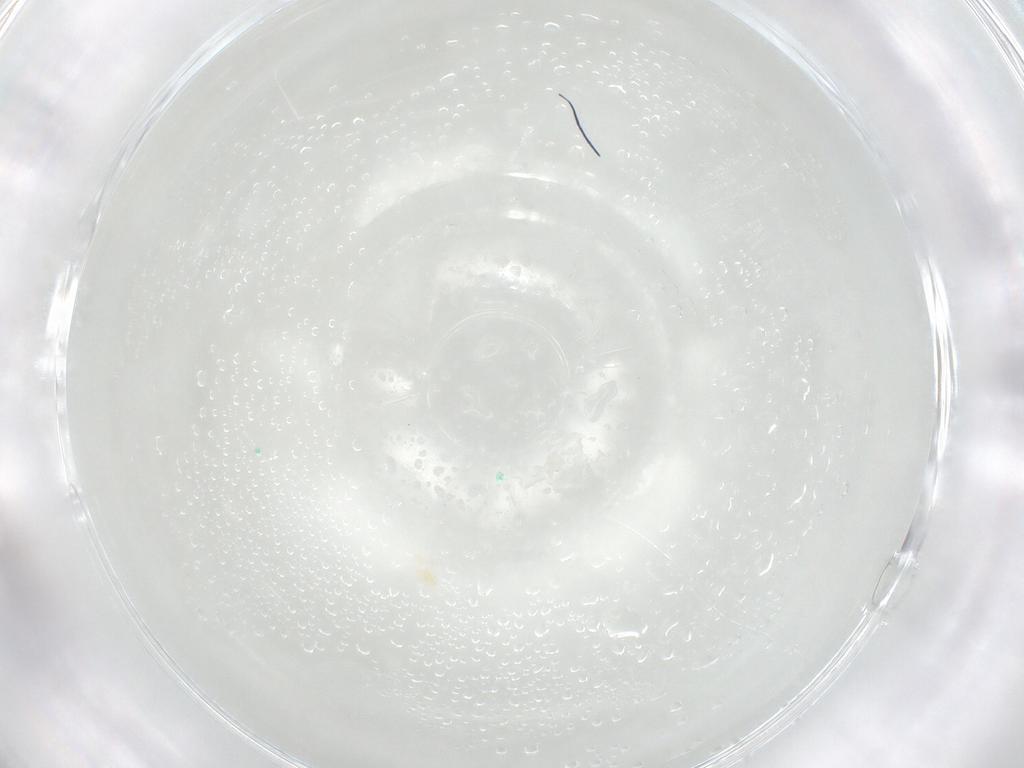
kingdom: Animalia
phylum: Arthropoda
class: Arachnida
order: Trombidiformes
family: Eupodidae
